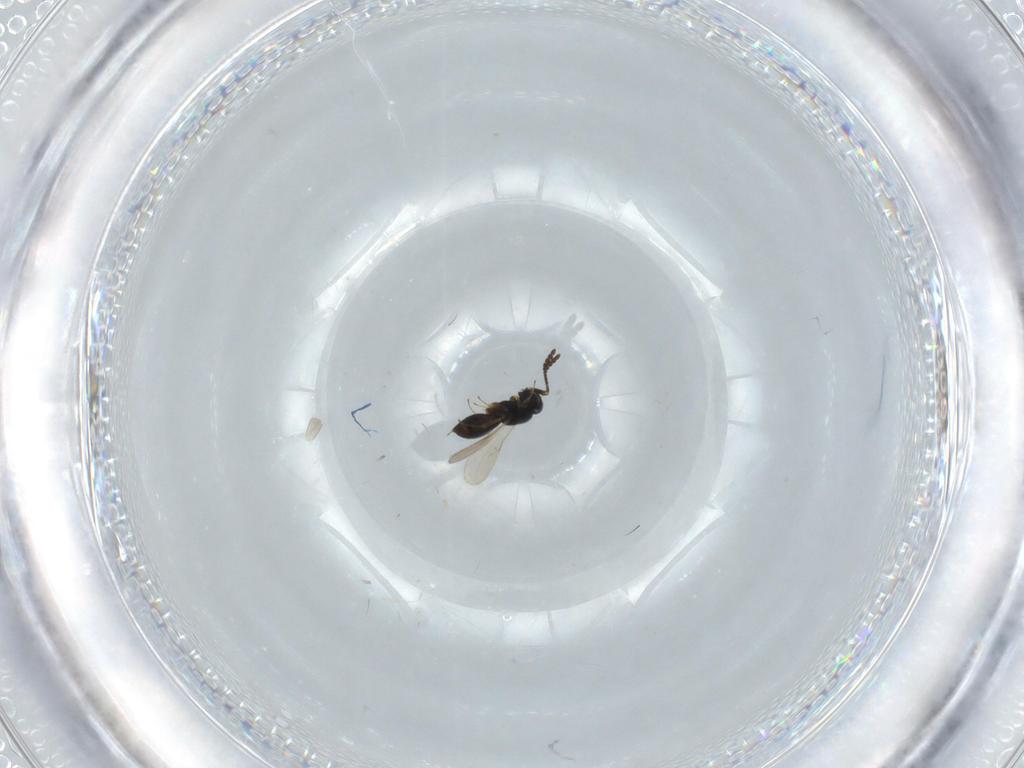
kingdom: Animalia
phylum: Arthropoda
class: Insecta
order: Hymenoptera
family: Scelionidae
